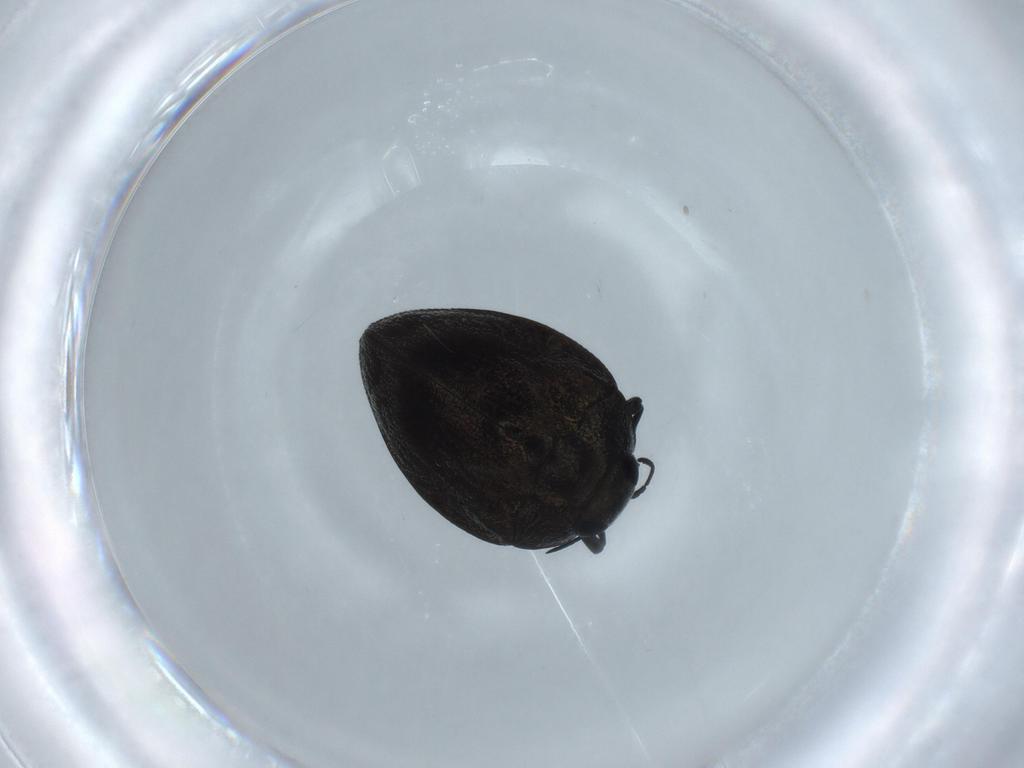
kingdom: Animalia
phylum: Arthropoda
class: Insecta
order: Coleoptera
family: Buprestidae
